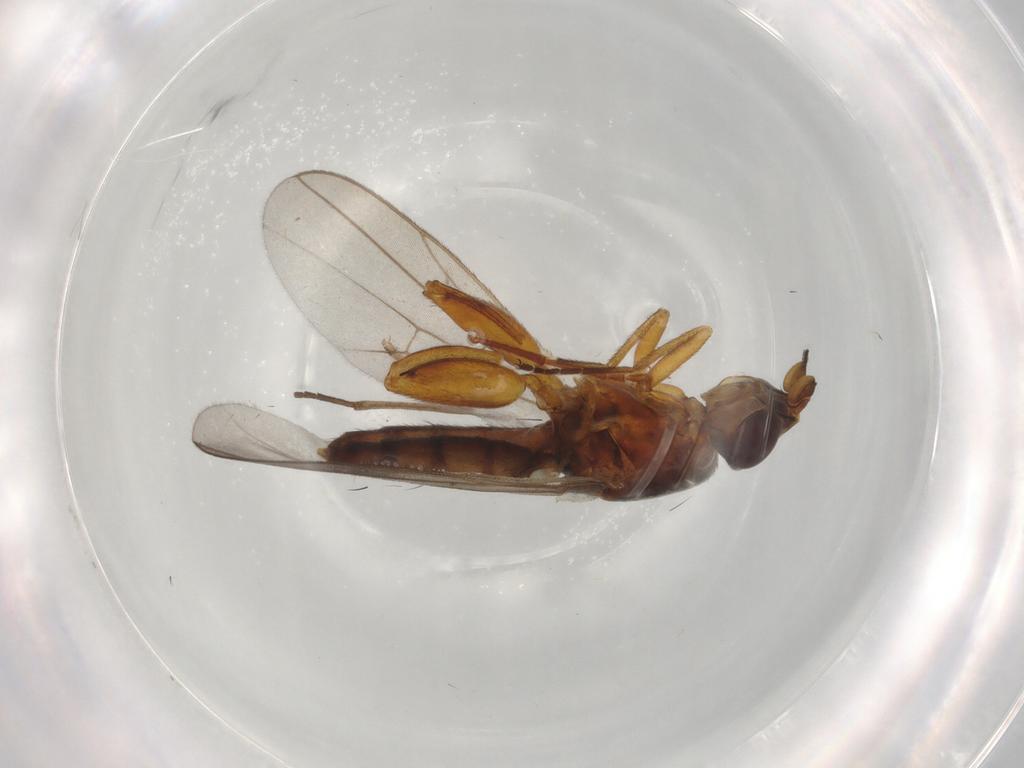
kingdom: Animalia
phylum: Arthropoda
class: Insecta
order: Diptera
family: Chloropidae
